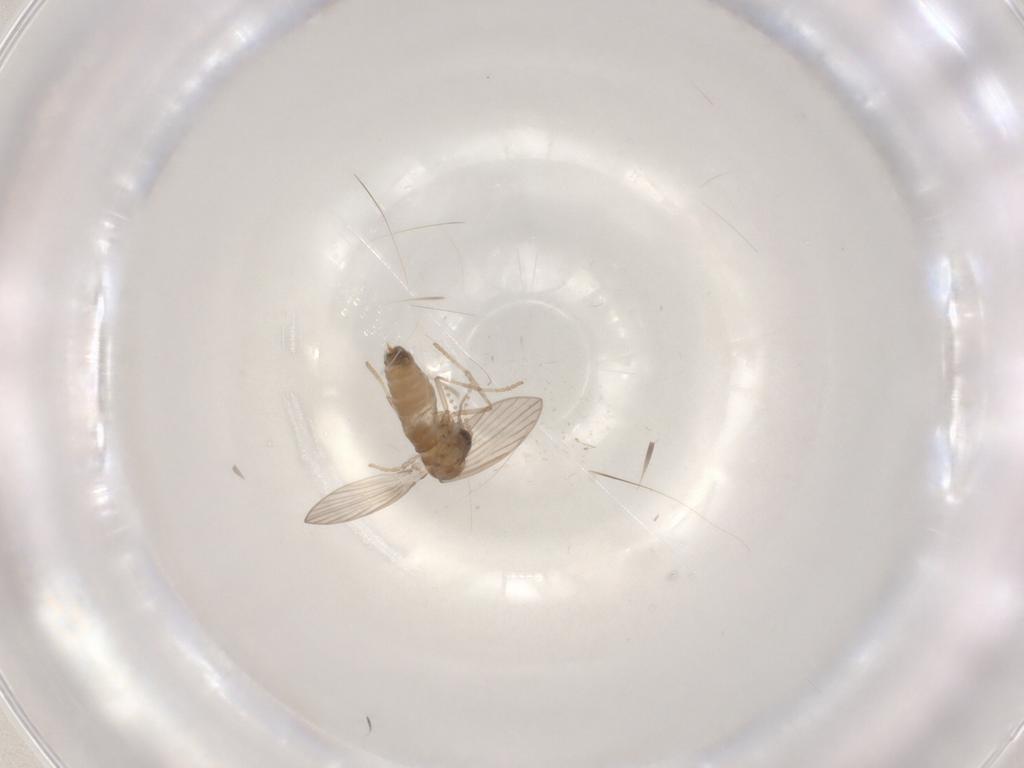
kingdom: Animalia
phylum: Arthropoda
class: Insecta
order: Diptera
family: Psychodidae
